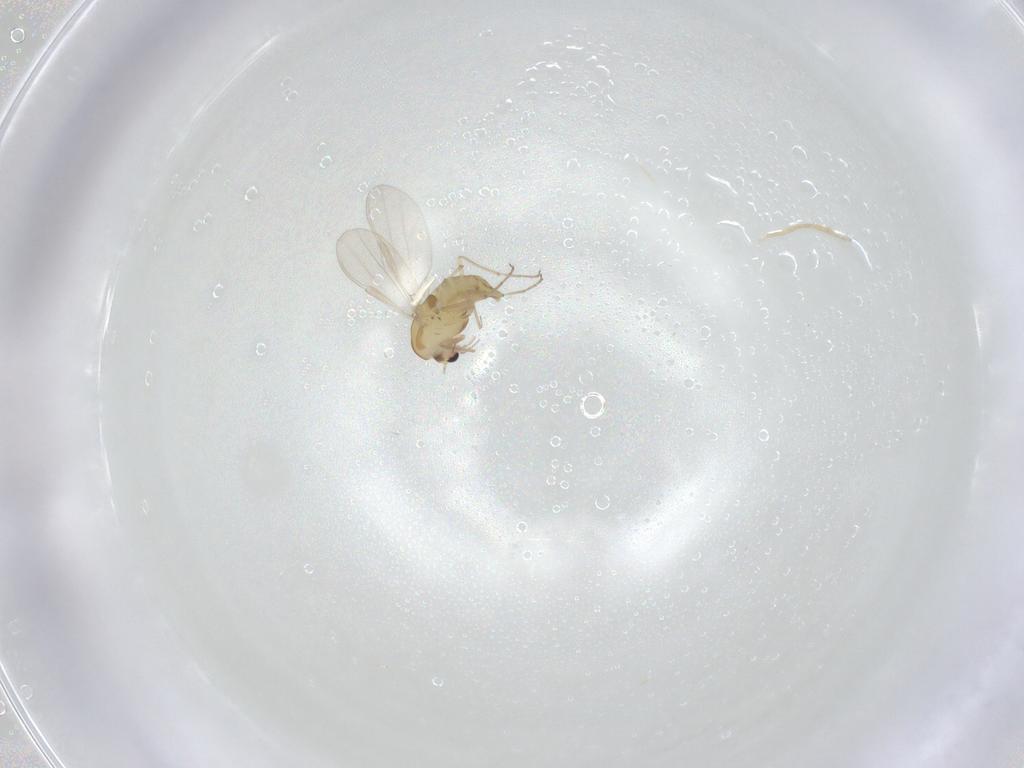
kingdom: Animalia
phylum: Arthropoda
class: Insecta
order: Diptera
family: Chironomidae
